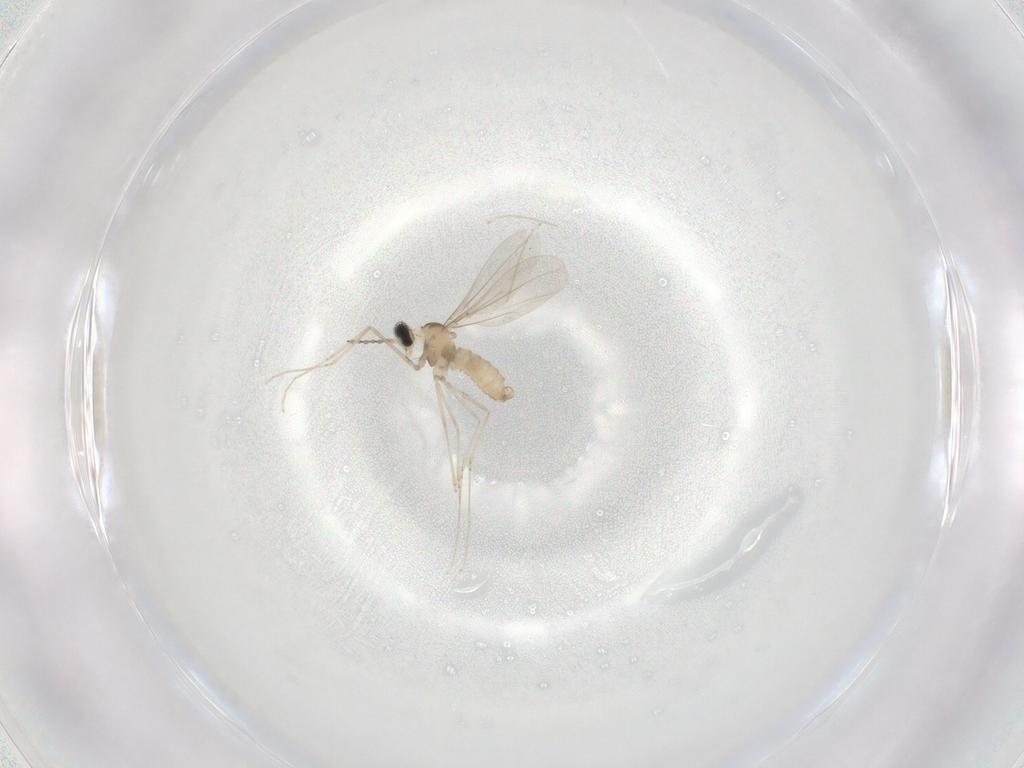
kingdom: Animalia
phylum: Arthropoda
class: Insecta
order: Diptera
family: Cecidomyiidae
